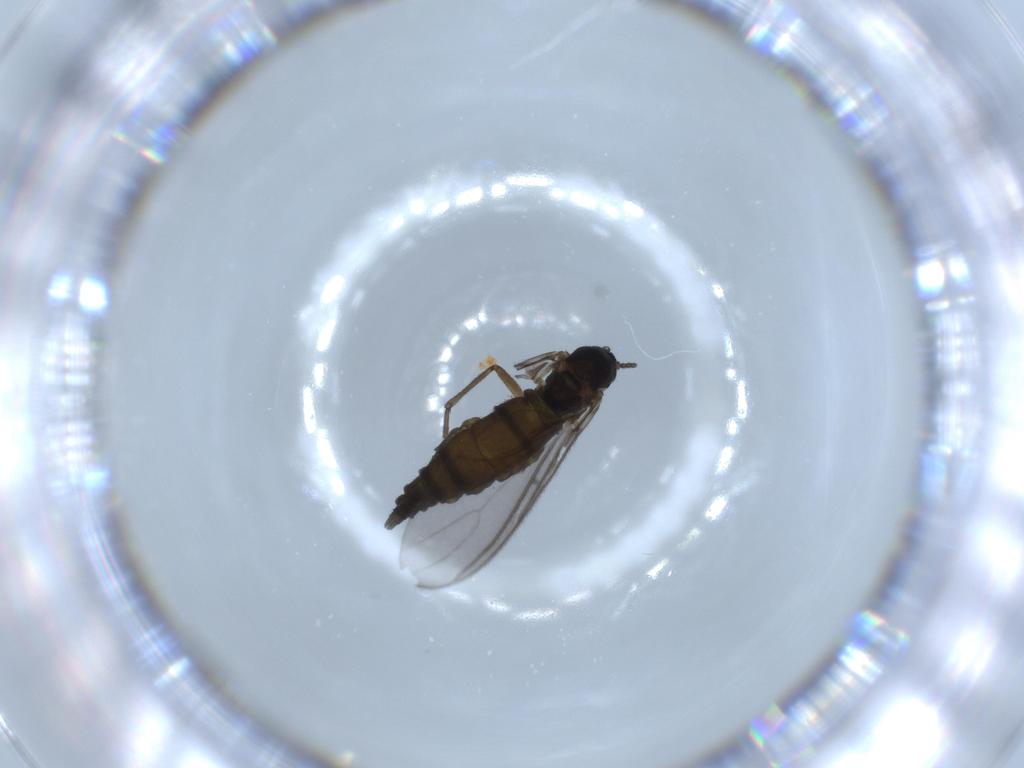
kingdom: Animalia
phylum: Arthropoda
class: Insecta
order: Diptera
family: Sciaridae
